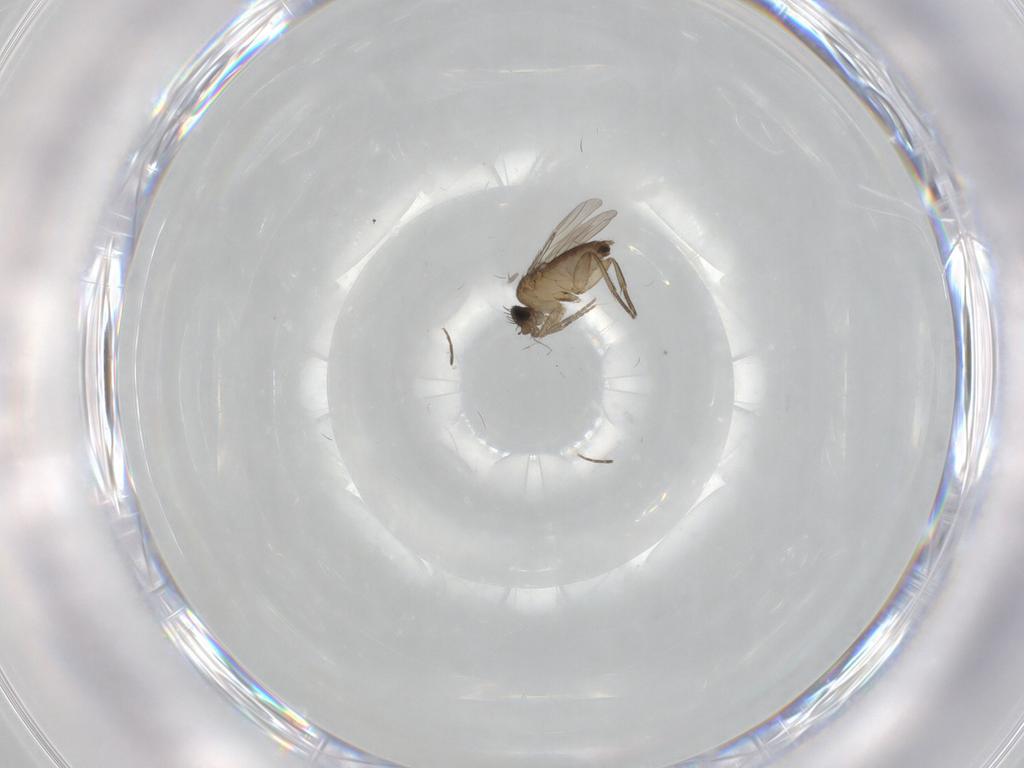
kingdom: Animalia
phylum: Arthropoda
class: Insecta
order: Diptera
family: Phoridae
